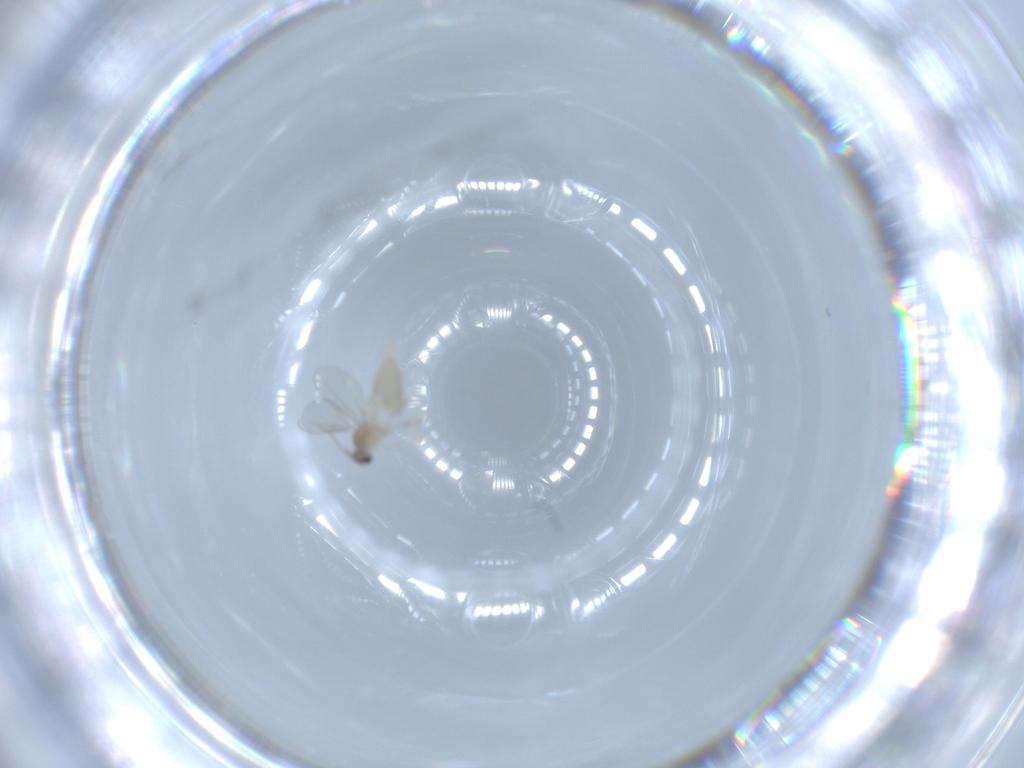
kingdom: Animalia
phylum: Arthropoda
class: Insecta
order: Diptera
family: Cecidomyiidae
